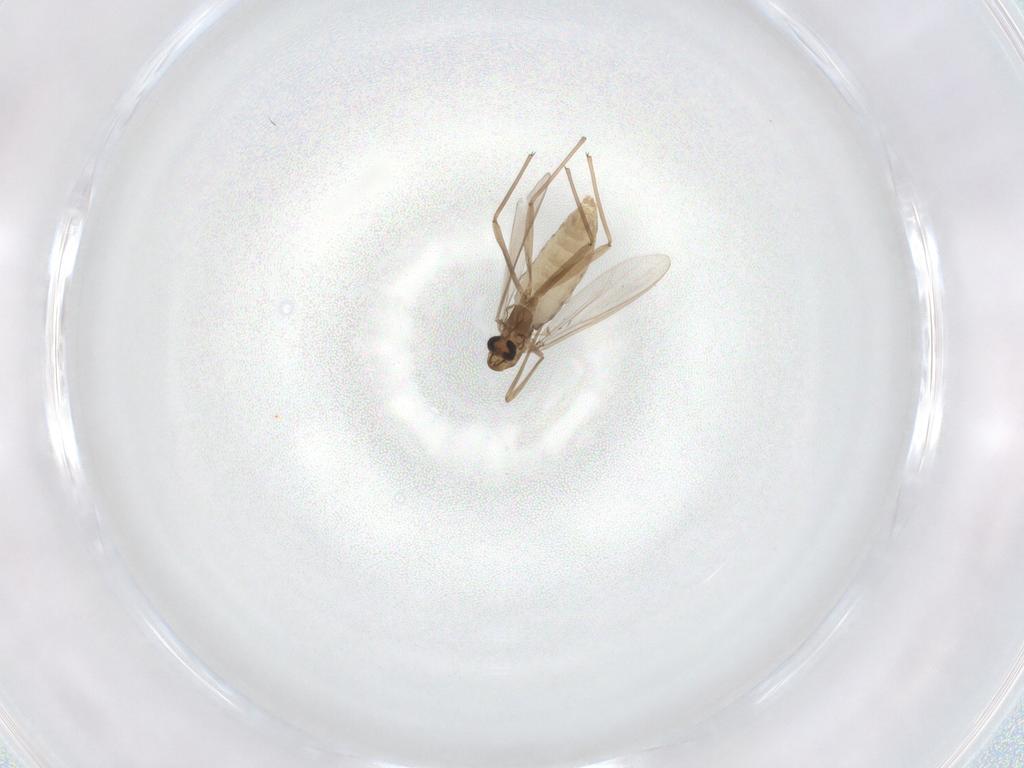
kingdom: Animalia
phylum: Arthropoda
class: Insecta
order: Diptera
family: Chironomidae
